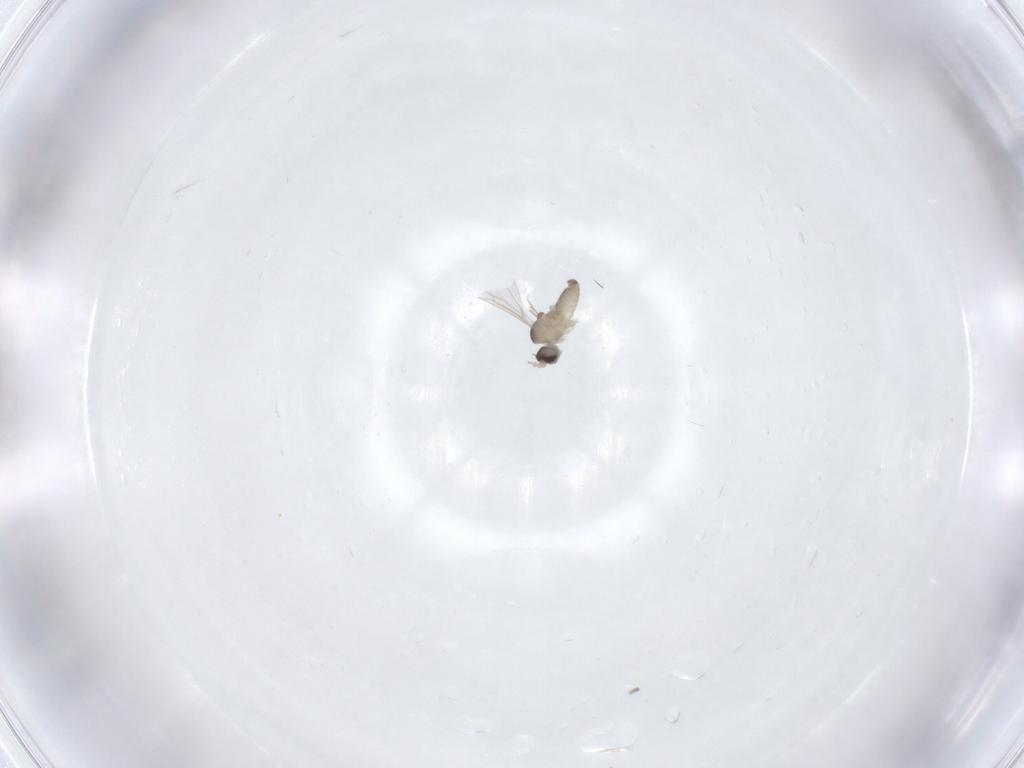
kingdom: Animalia
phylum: Arthropoda
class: Insecta
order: Diptera
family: Cecidomyiidae
